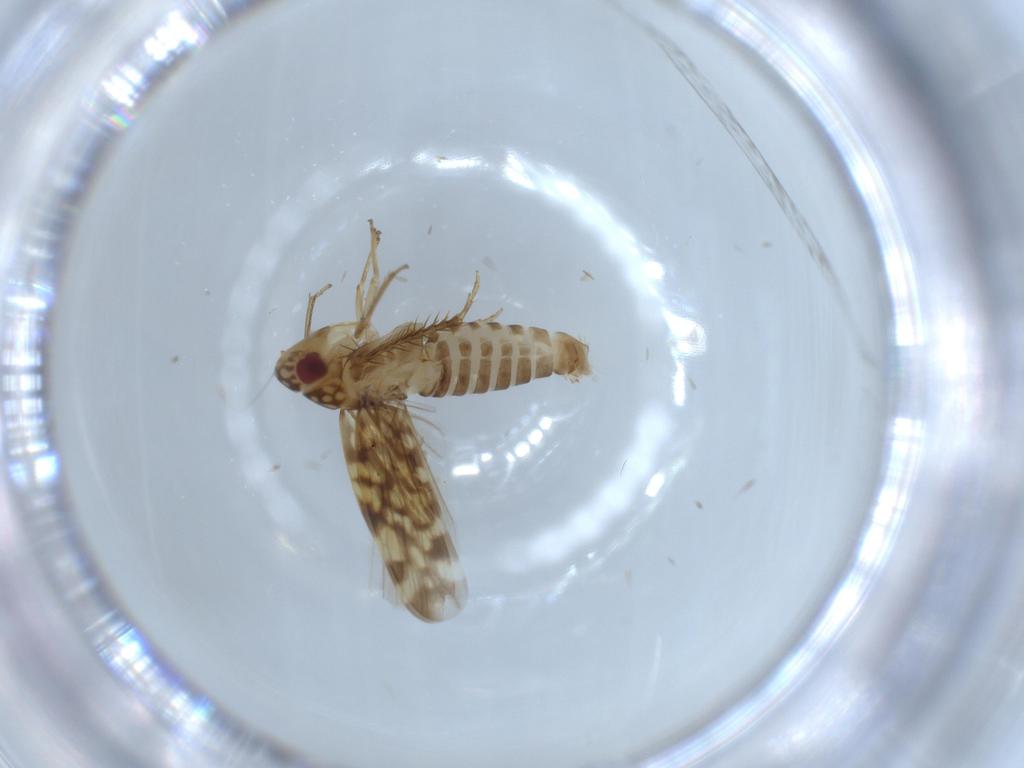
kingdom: Animalia
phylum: Arthropoda
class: Insecta
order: Hemiptera
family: Cicadellidae
